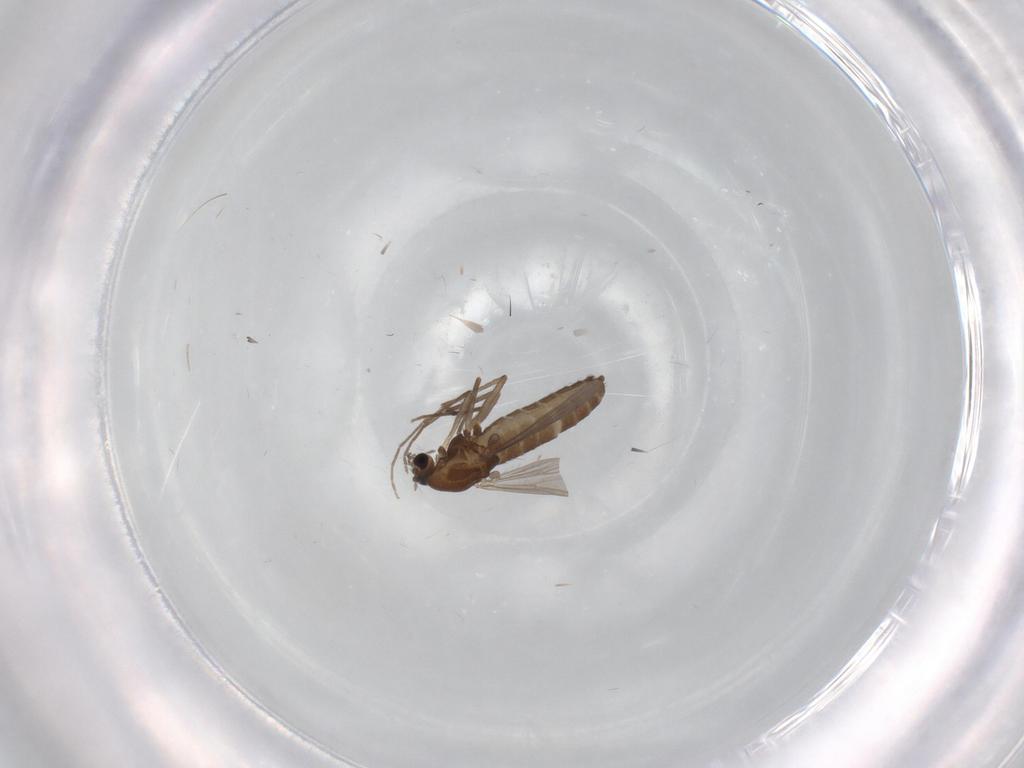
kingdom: Animalia
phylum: Arthropoda
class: Insecta
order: Diptera
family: Chironomidae
